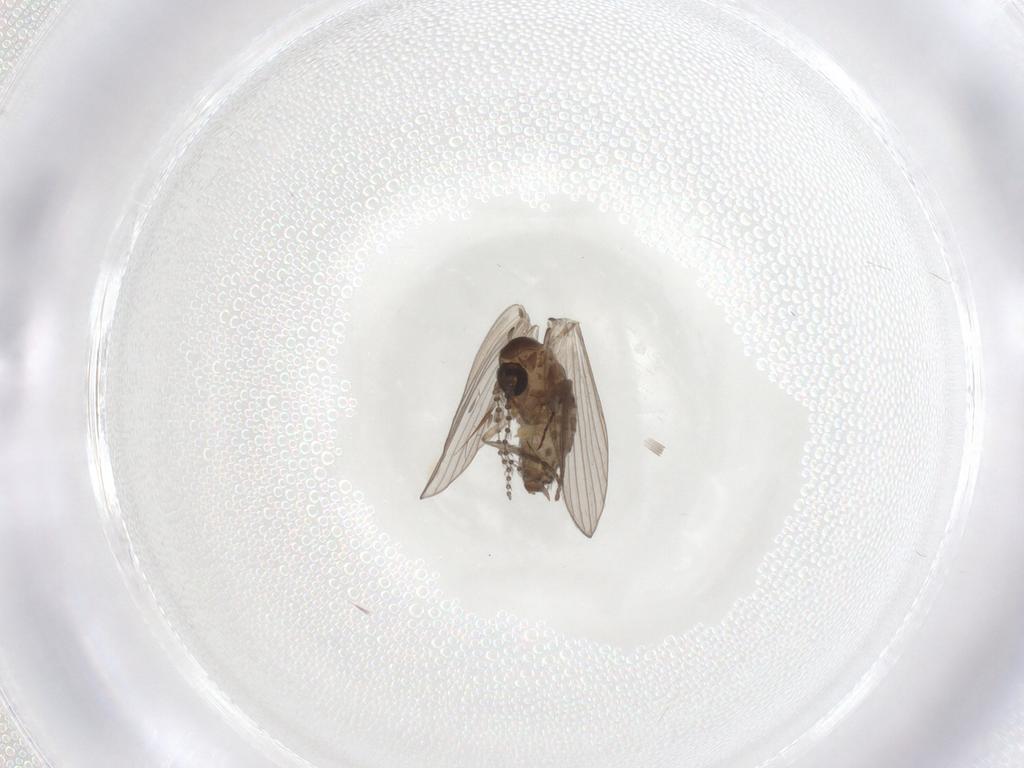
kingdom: Animalia
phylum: Arthropoda
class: Insecta
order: Diptera
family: Psychodidae
